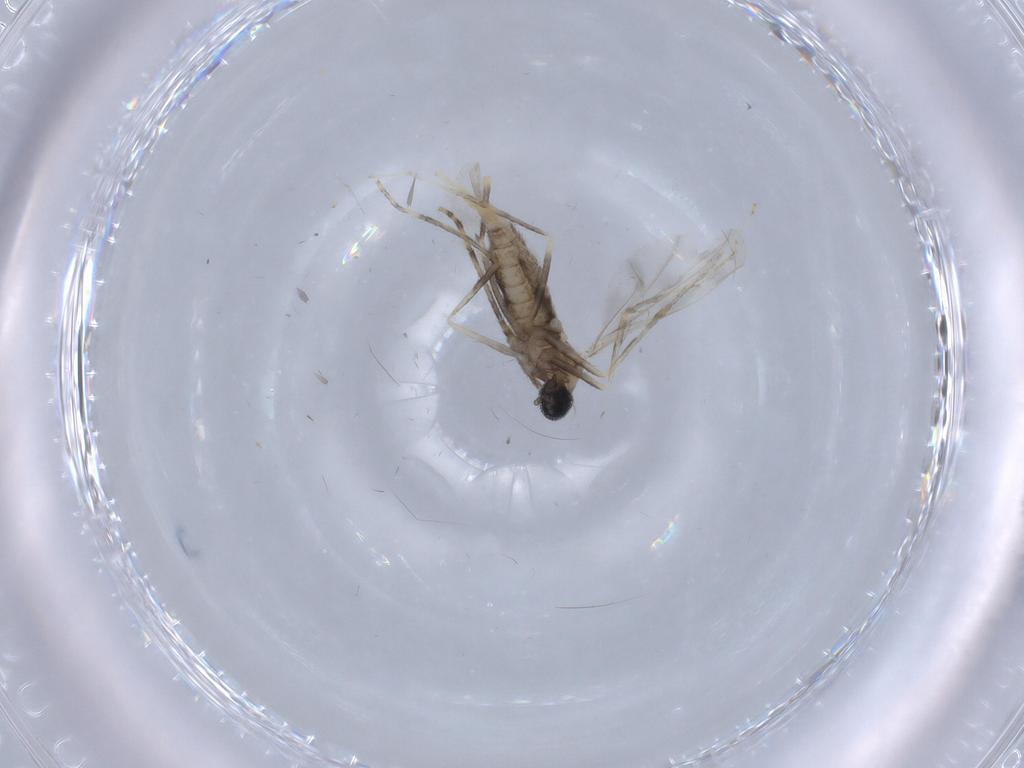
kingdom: Animalia
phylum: Arthropoda
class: Insecta
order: Diptera
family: Cecidomyiidae
